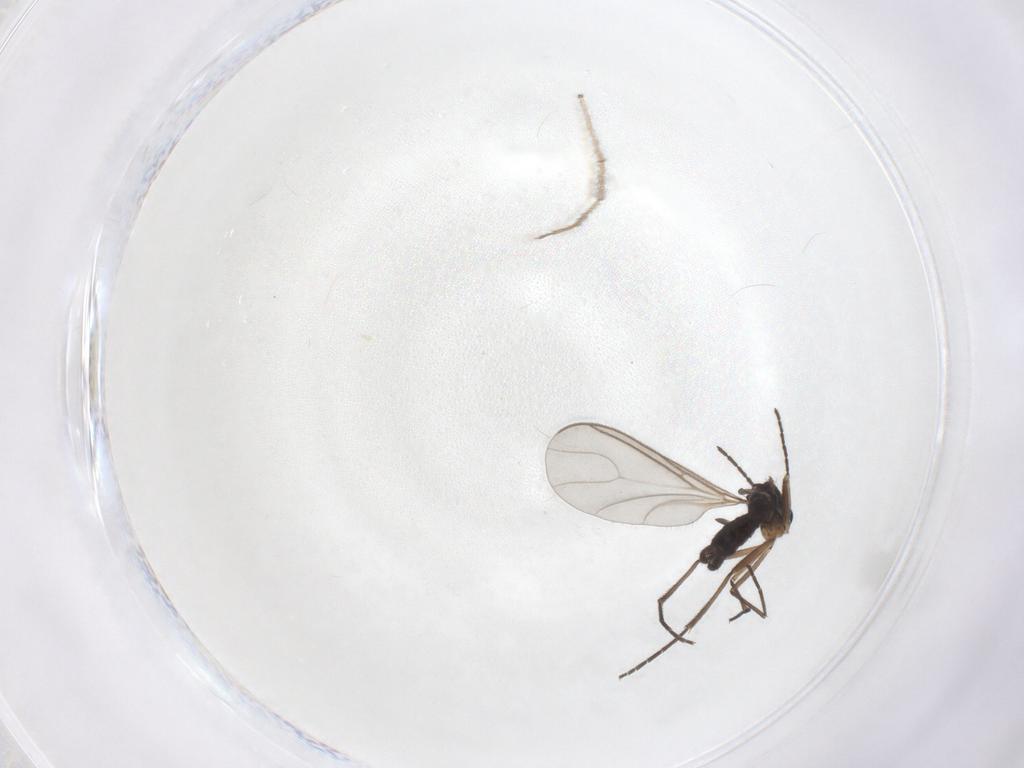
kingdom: Animalia
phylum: Arthropoda
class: Insecta
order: Diptera
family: Sciaridae
